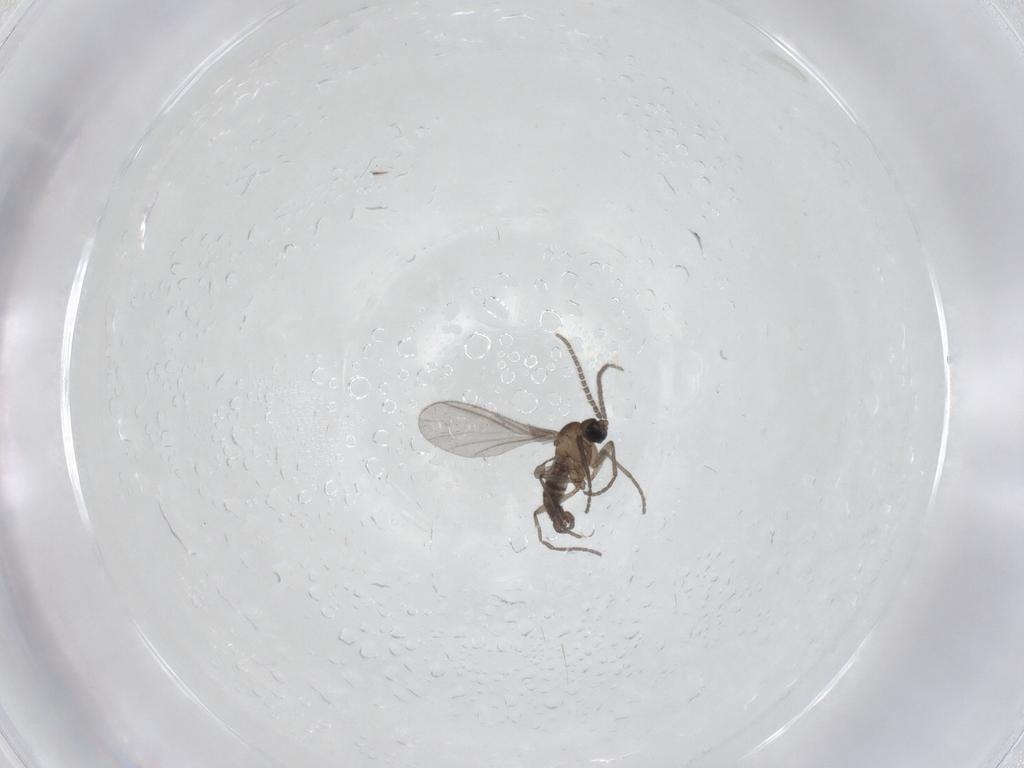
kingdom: Animalia
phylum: Arthropoda
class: Insecta
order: Diptera
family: Sciaridae
